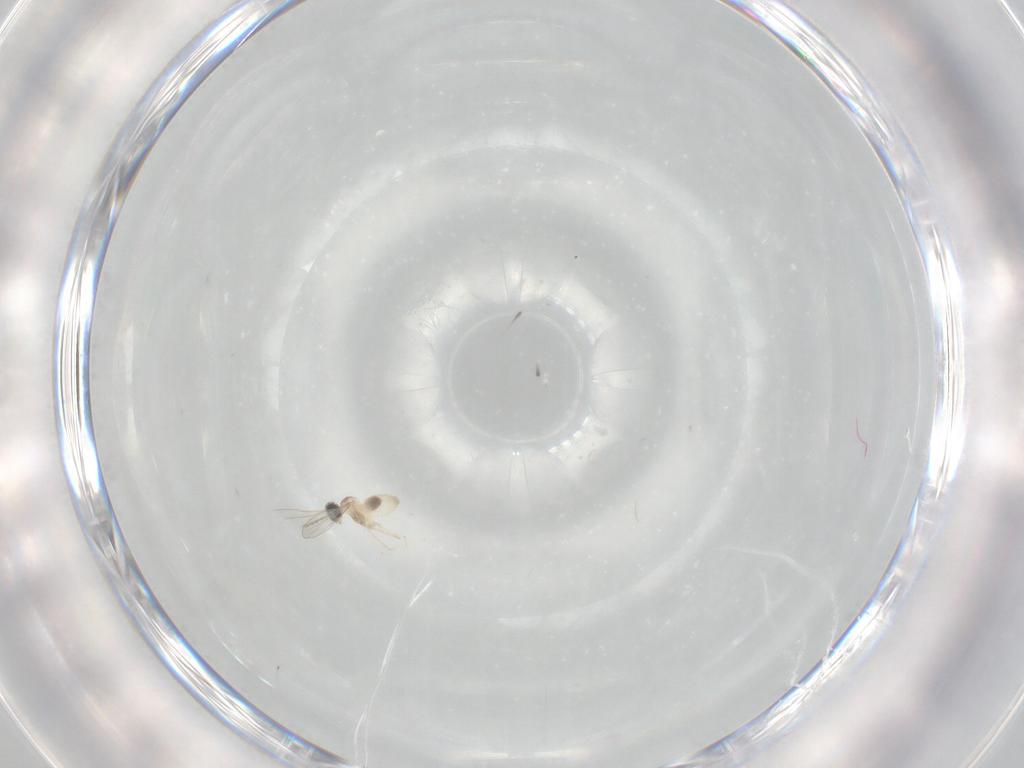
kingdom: Animalia
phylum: Arthropoda
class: Insecta
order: Diptera
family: Cecidomyiidae
